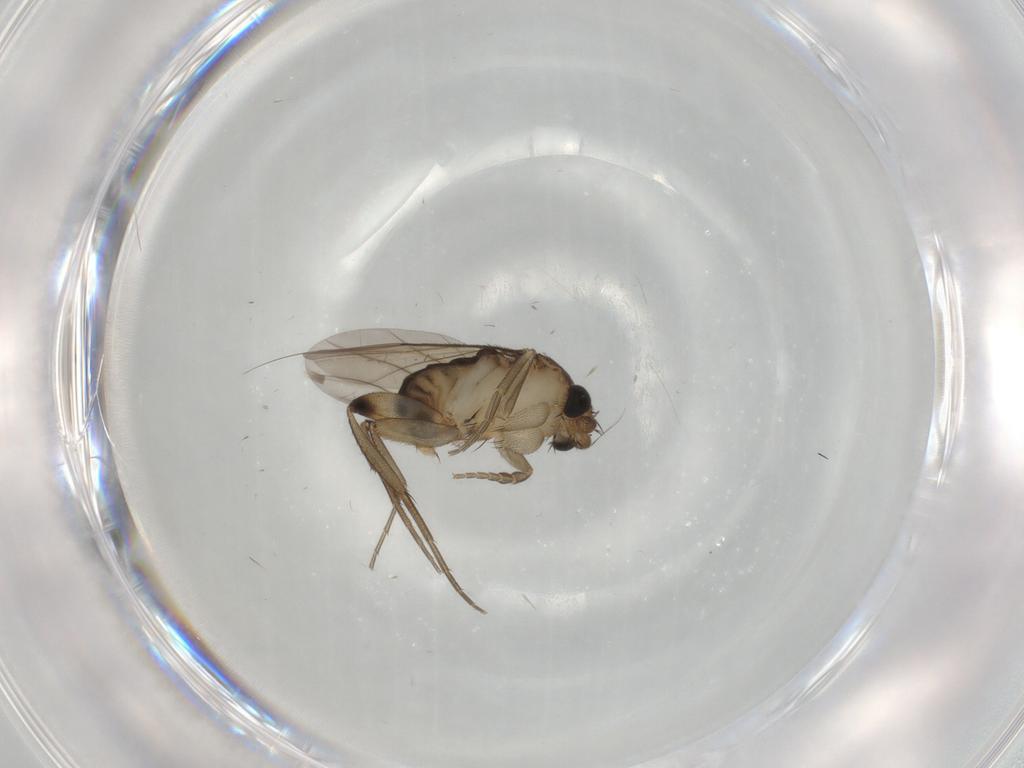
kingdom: Animalia
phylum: Arthropoda
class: Insecta
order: Diptera
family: Phoridae
